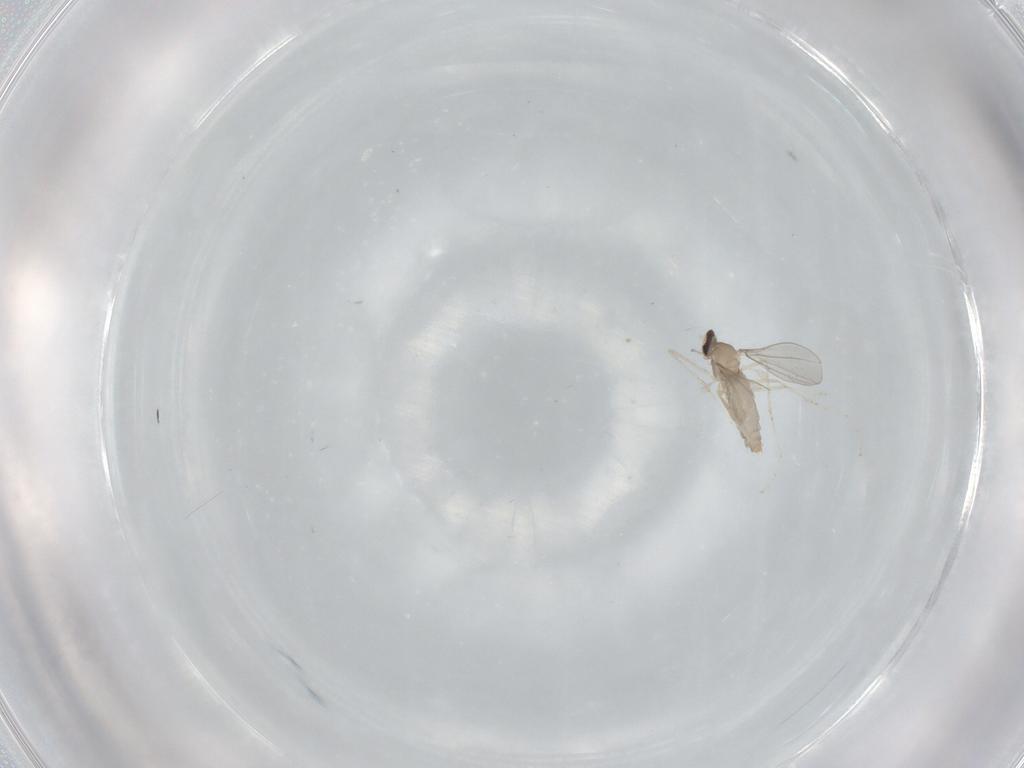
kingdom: Animalia
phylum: Arthropoda
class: Insecta
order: Diptera
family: Cecidomyiidae
